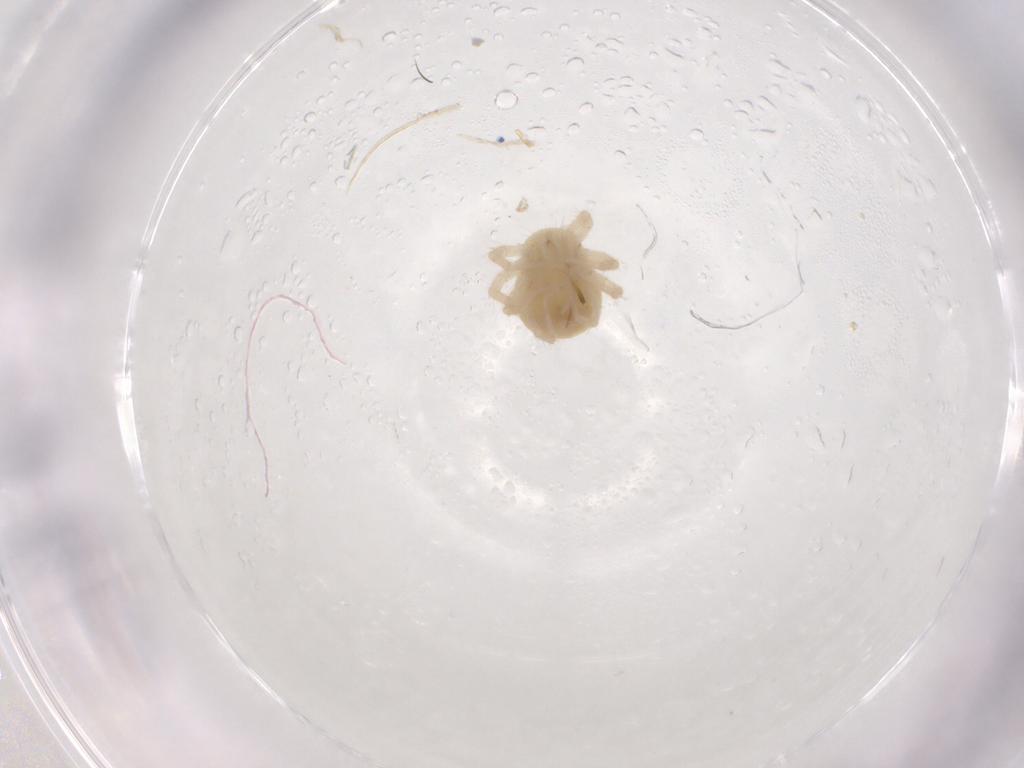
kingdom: Animalia
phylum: Arthropoda
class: Arachnida
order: Trombidiformes
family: Anystidae
